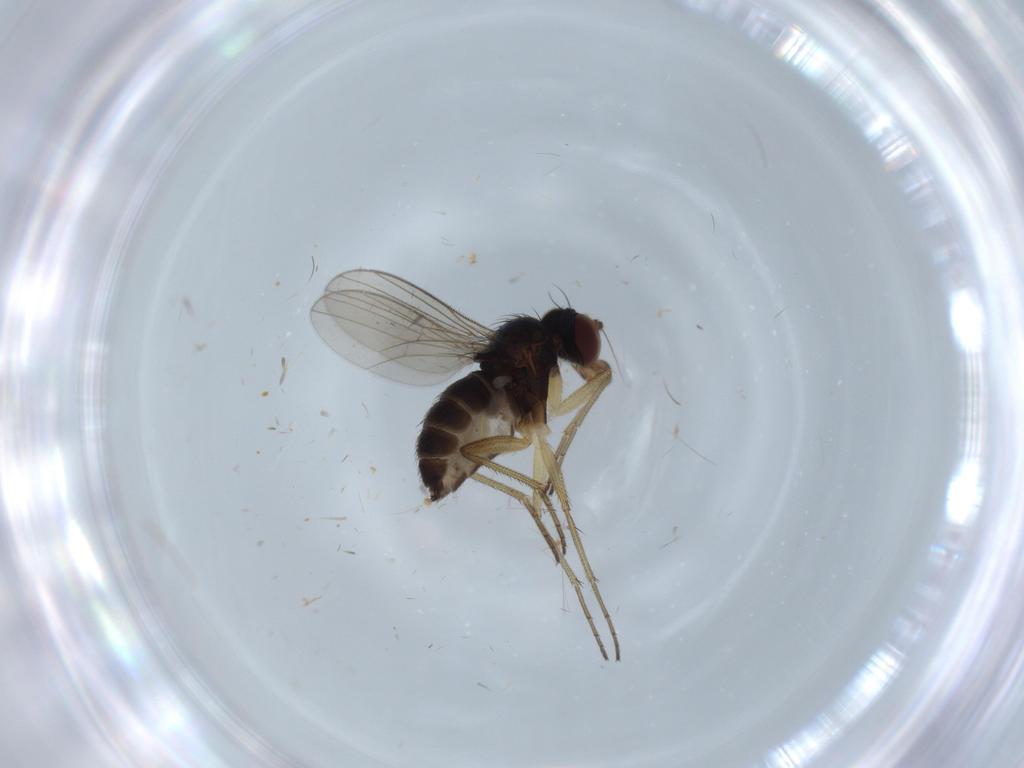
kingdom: Animalia
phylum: Arthropoda
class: Insecta
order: Diptera
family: Dolichopodidae
